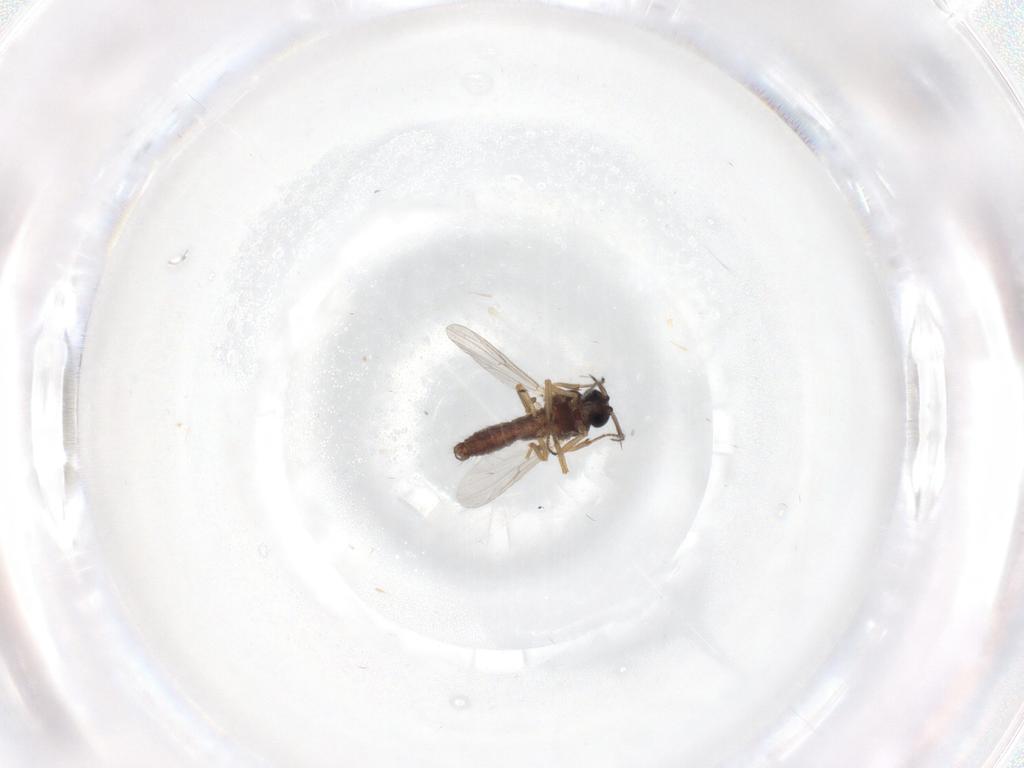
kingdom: Animalia
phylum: Arthropoda
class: Insecta
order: Diptera
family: Ceratopogonidae
